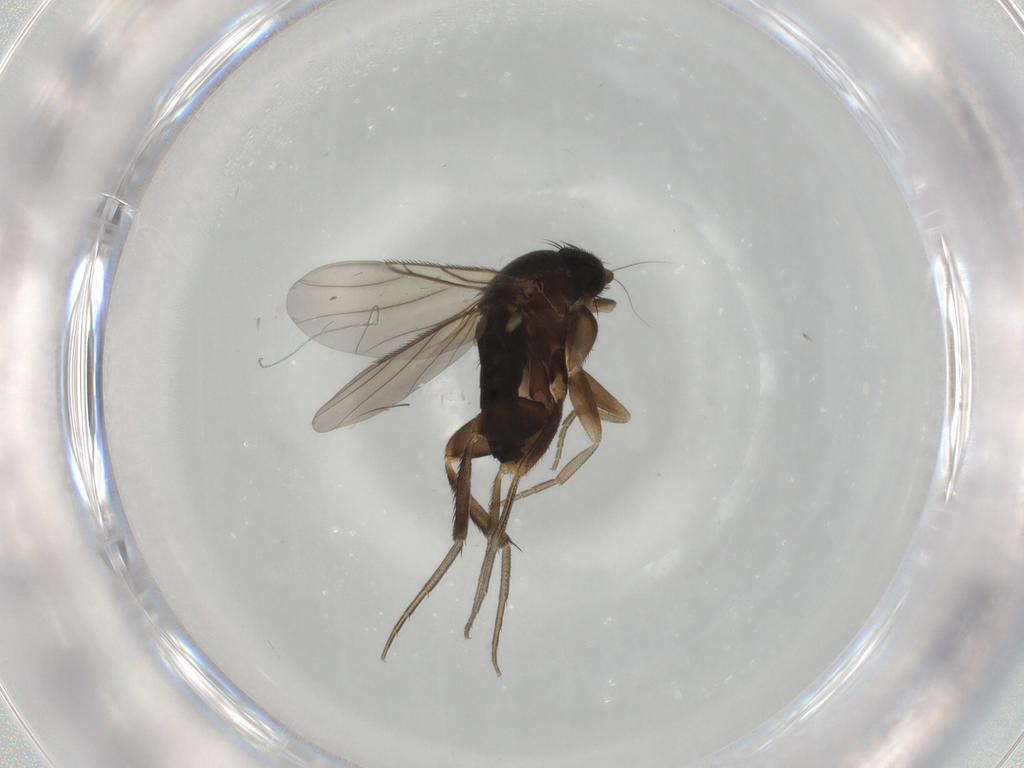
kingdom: Animalia
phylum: Arthropoda
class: Insecta
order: Diptera
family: Phoridae
